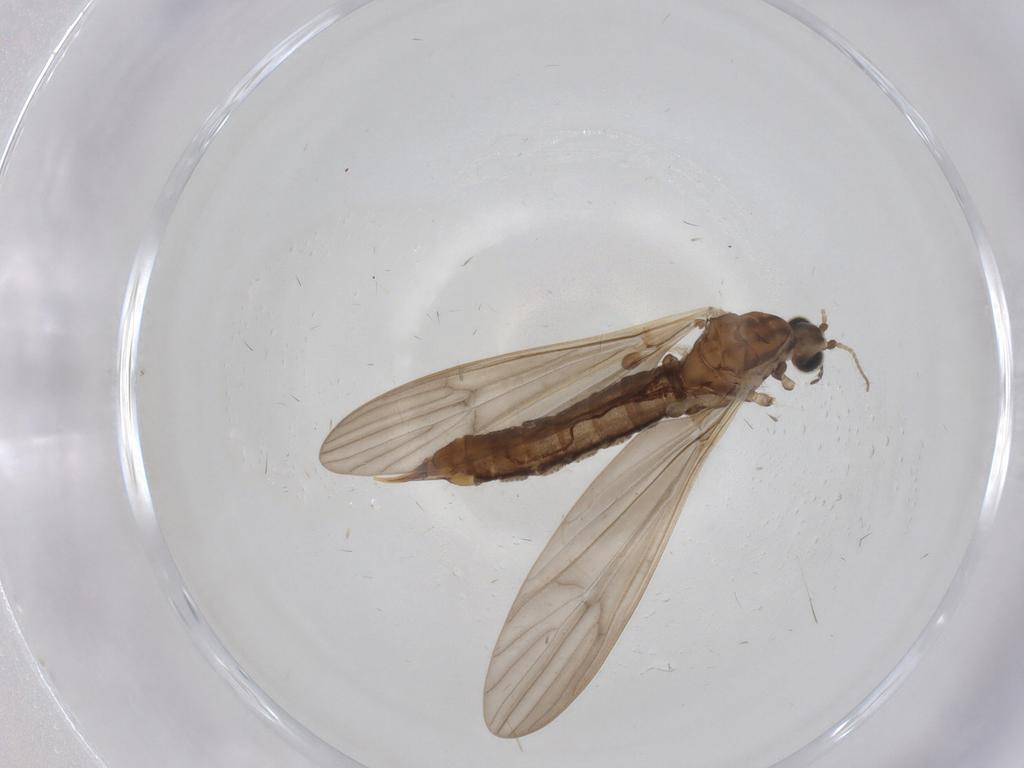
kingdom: Animalia
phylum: Arthropoda
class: Insecta
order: Diptera
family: Limoniidae
